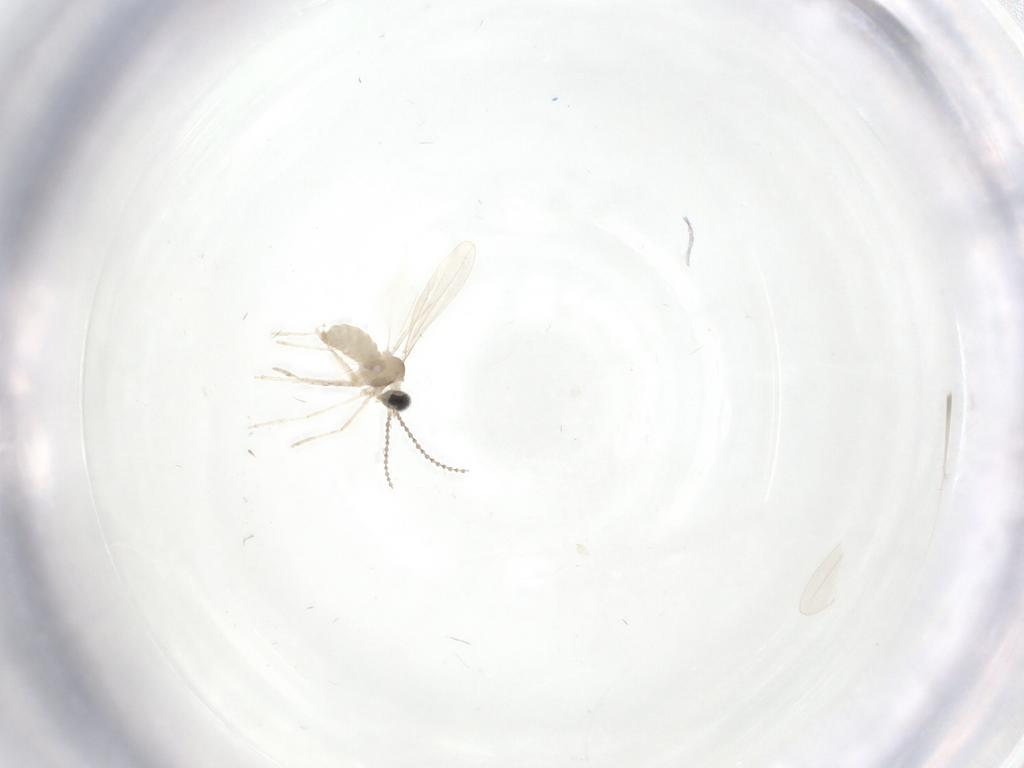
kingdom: Animalia
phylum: Arthropoda
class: Insecta
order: Diptera
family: Cecidomyiidae
